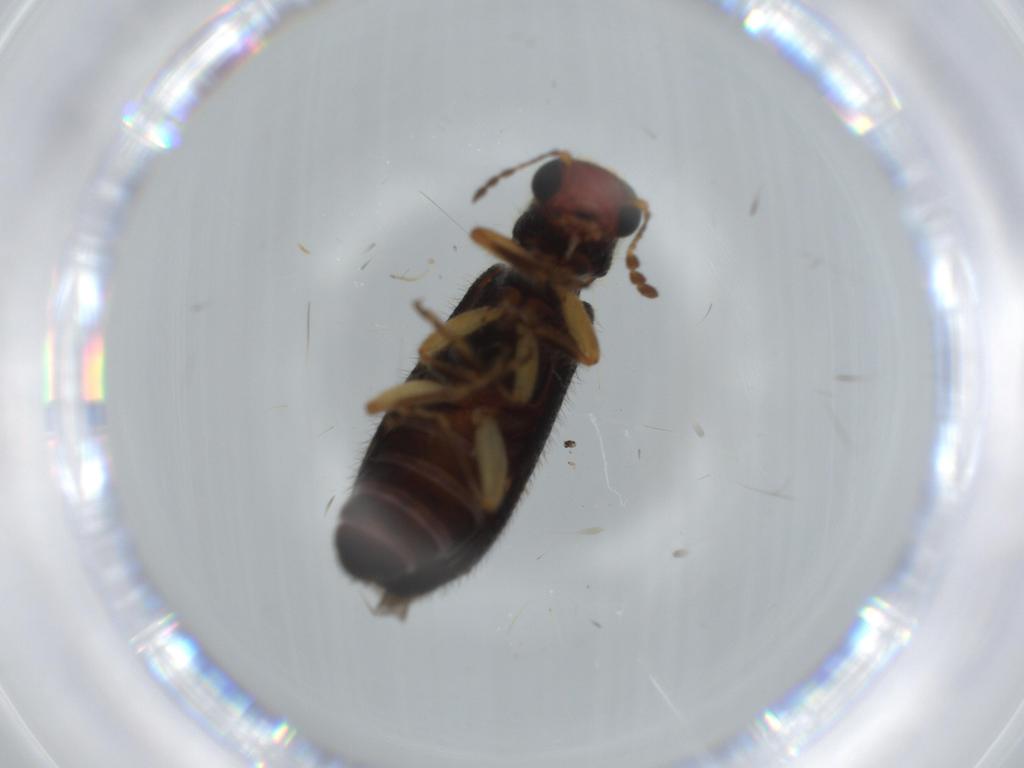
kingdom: Animalia
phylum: Arthropoda
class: Insecta
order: Coleoptera
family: Cleridae
